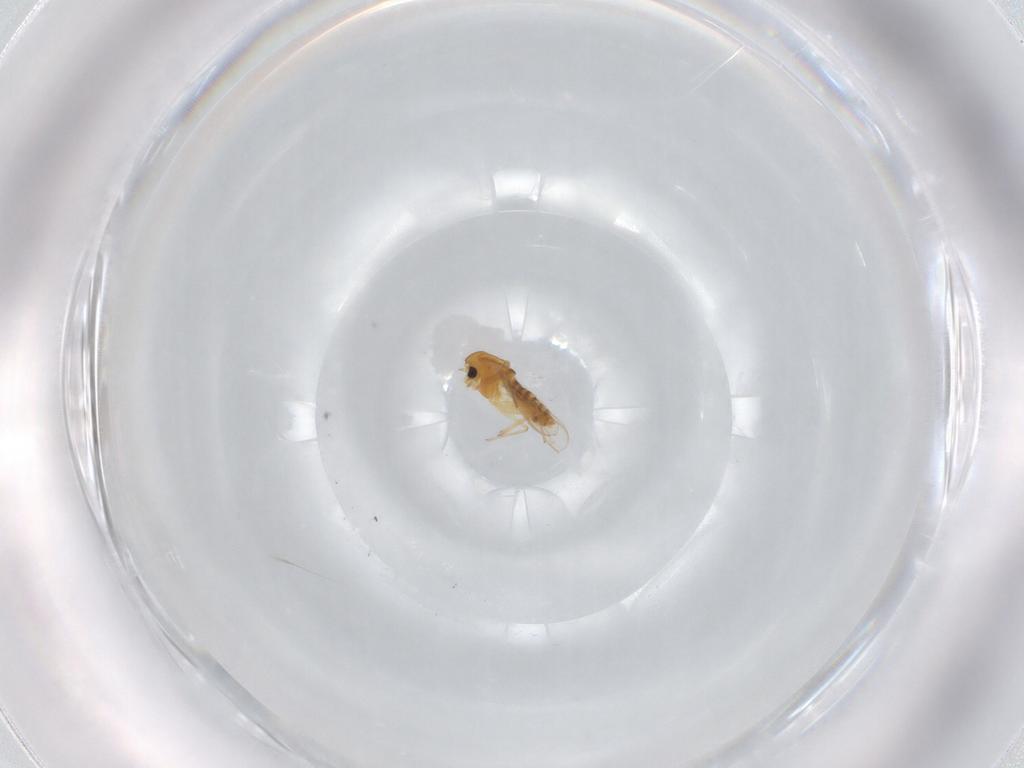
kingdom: Animalia
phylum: Arthropoda
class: Insecta
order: Diptera
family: Chironomidae
